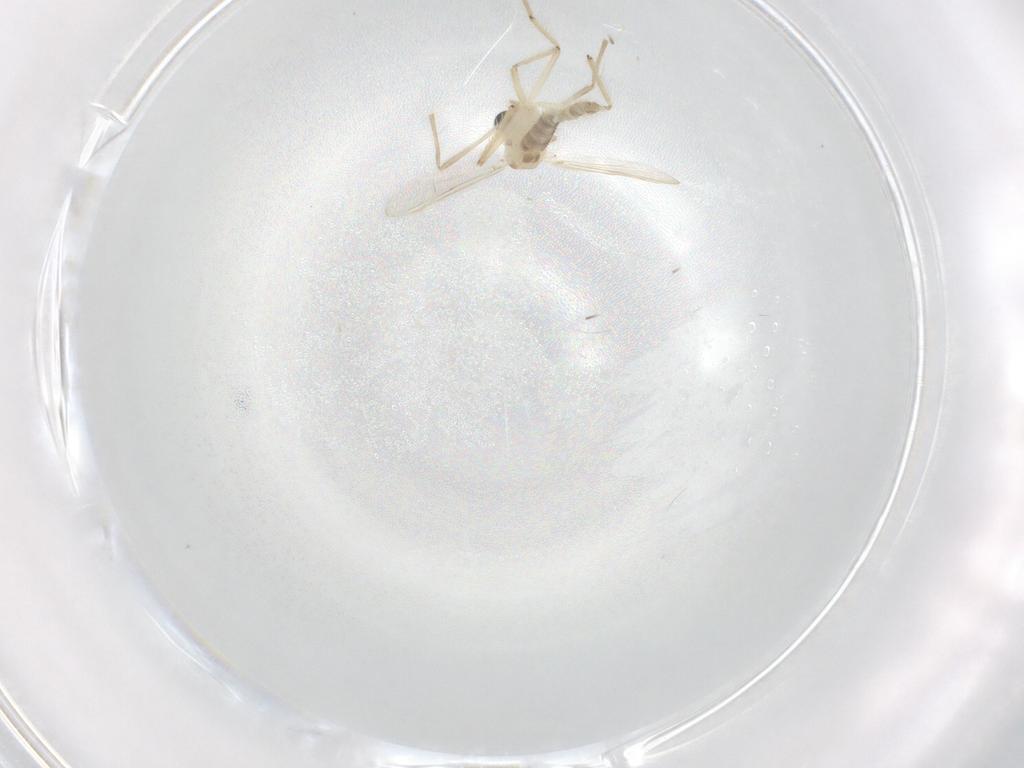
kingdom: Animalia
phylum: Arthropoda
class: Insecta
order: Diptera
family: Chironomidae
